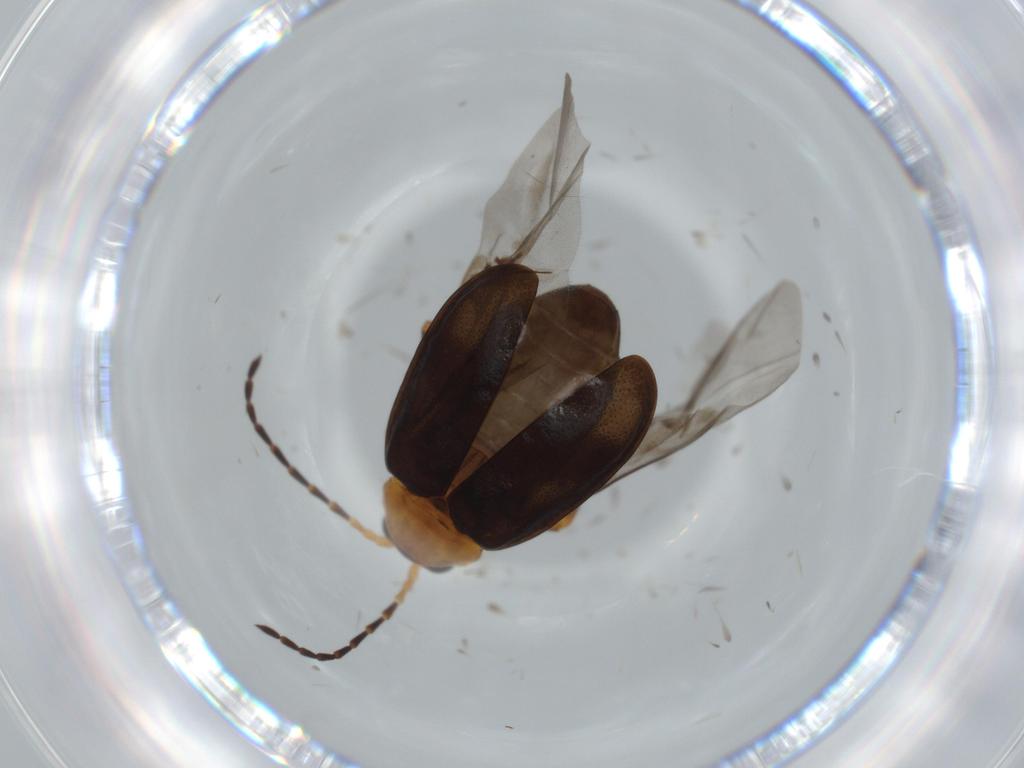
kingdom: Animalia
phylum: Arthropoda
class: Insecta
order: Coleoptera
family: Chrysomelidae
